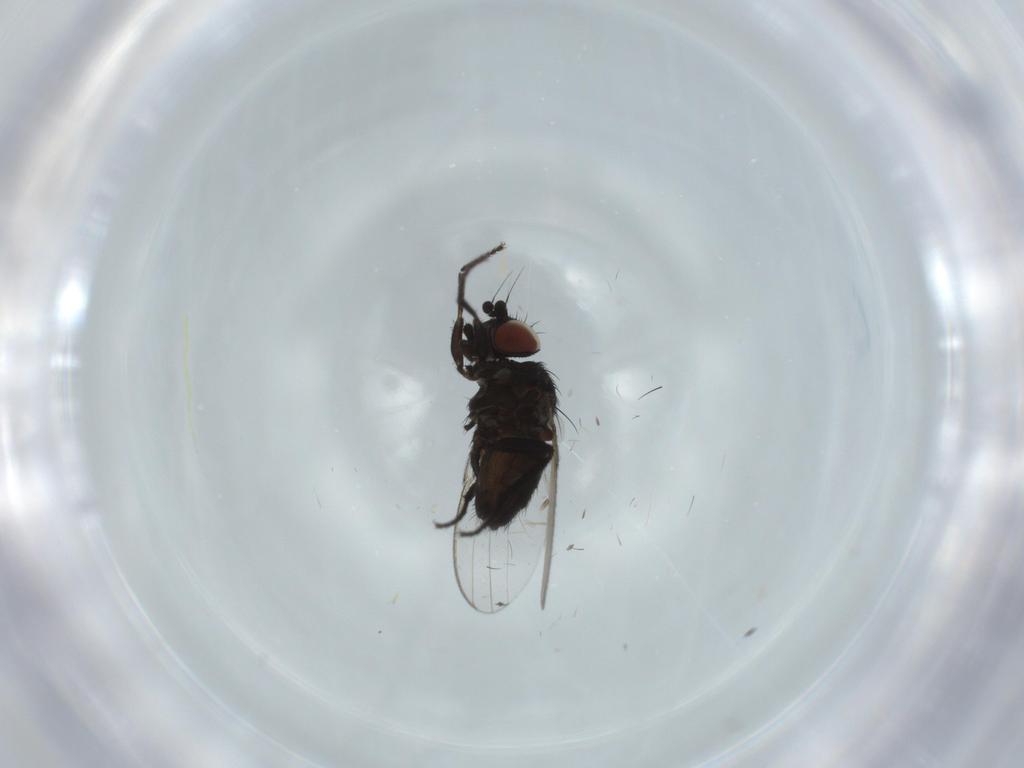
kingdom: Animalia
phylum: Arthropoda
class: Insecta
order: Diptera
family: Milichiidae
